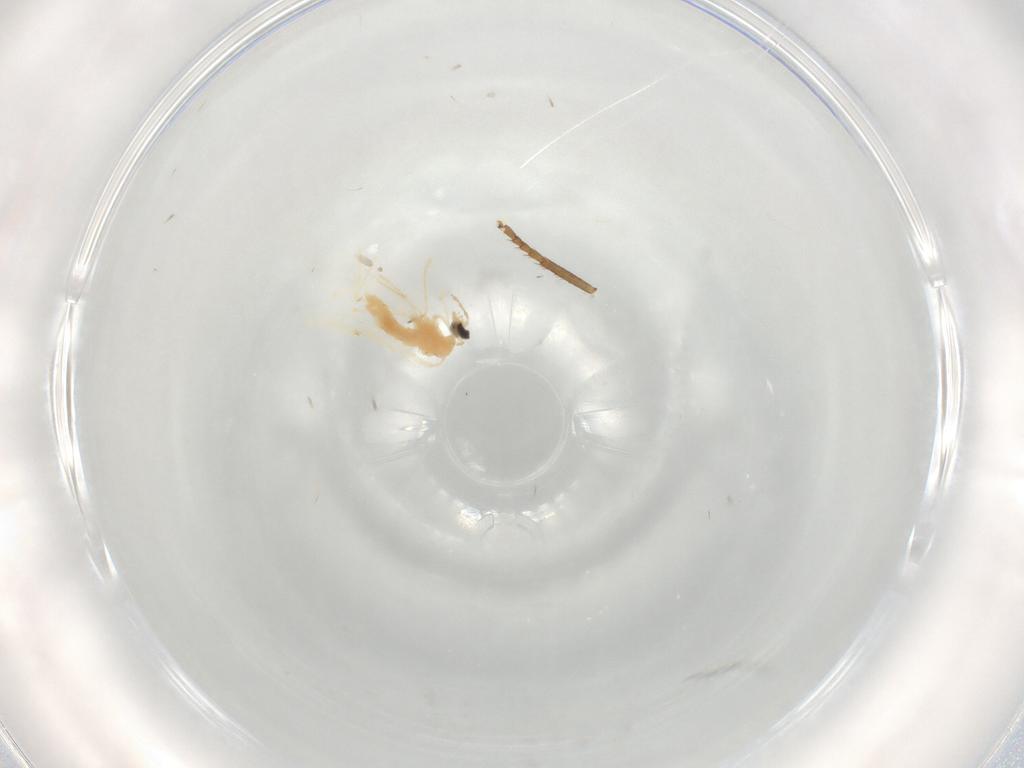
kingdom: Animalia
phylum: Arthropoda
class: Insecta
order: Diptera
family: Cecidomyiidae
